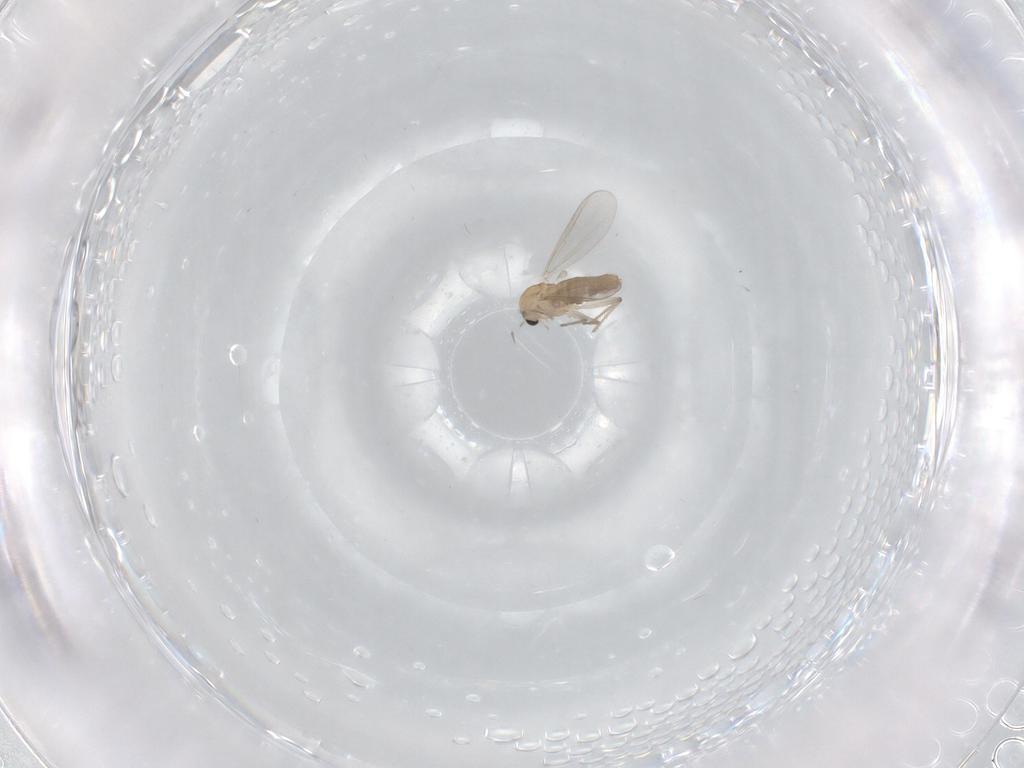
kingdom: Animalia
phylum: Arthropoda
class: Insecta
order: Diptera
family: Chironomidae
